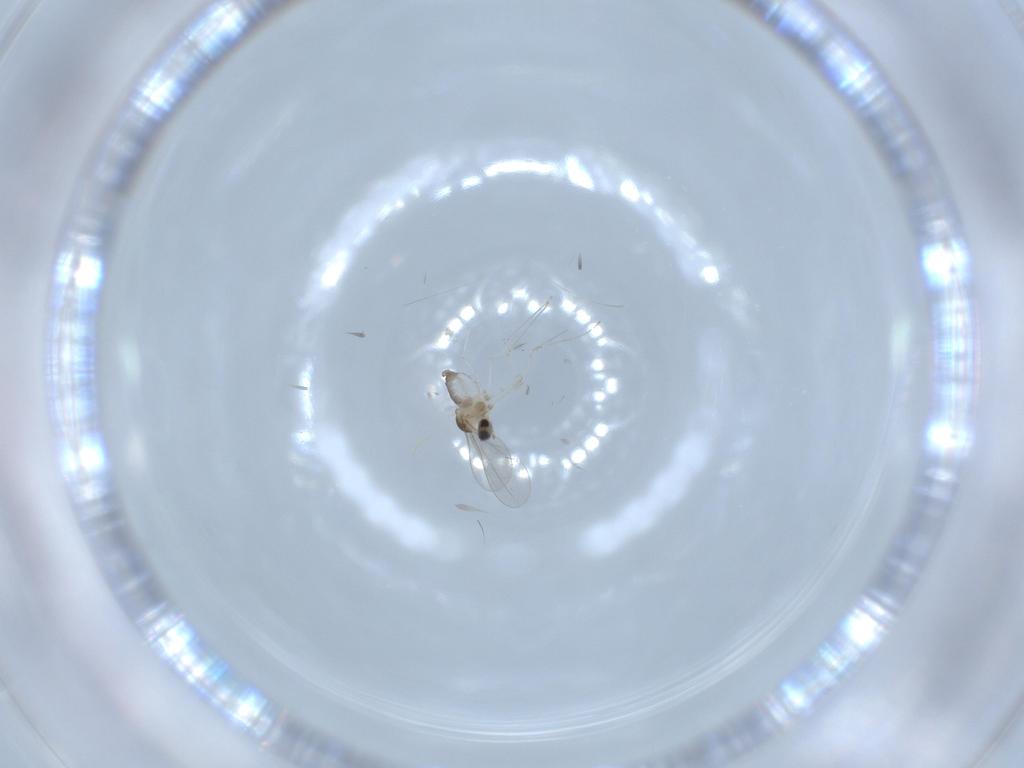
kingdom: Animalia
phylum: Arthropoda
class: Insecta
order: Diptera
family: Cecidomyiidae
